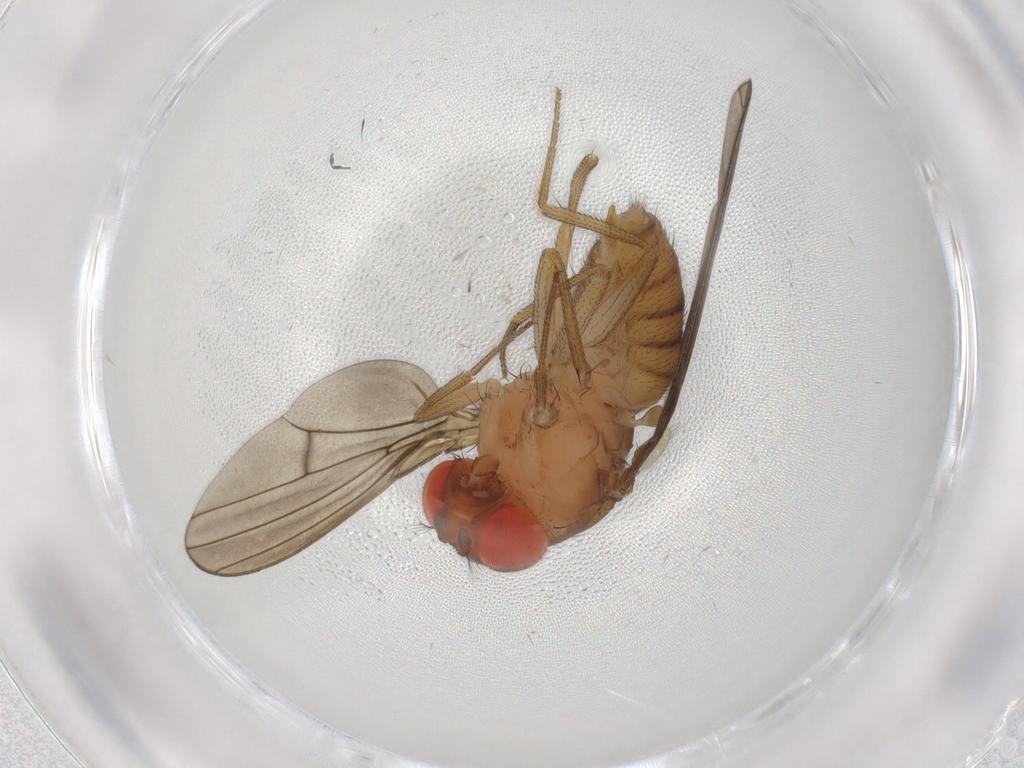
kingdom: Animalia
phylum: Arthropoda
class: Insecta
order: Diptera
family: Drosophilidae
